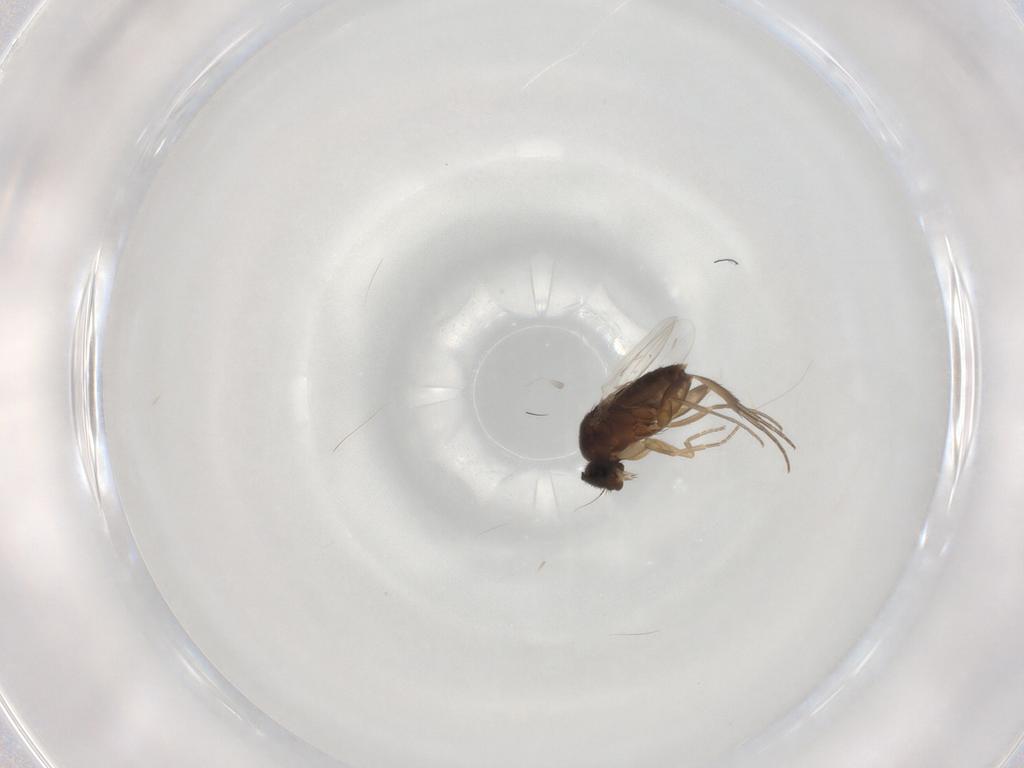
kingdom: Animalia
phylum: Arthropoda
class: Insecta
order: Diptera
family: Phoridae
